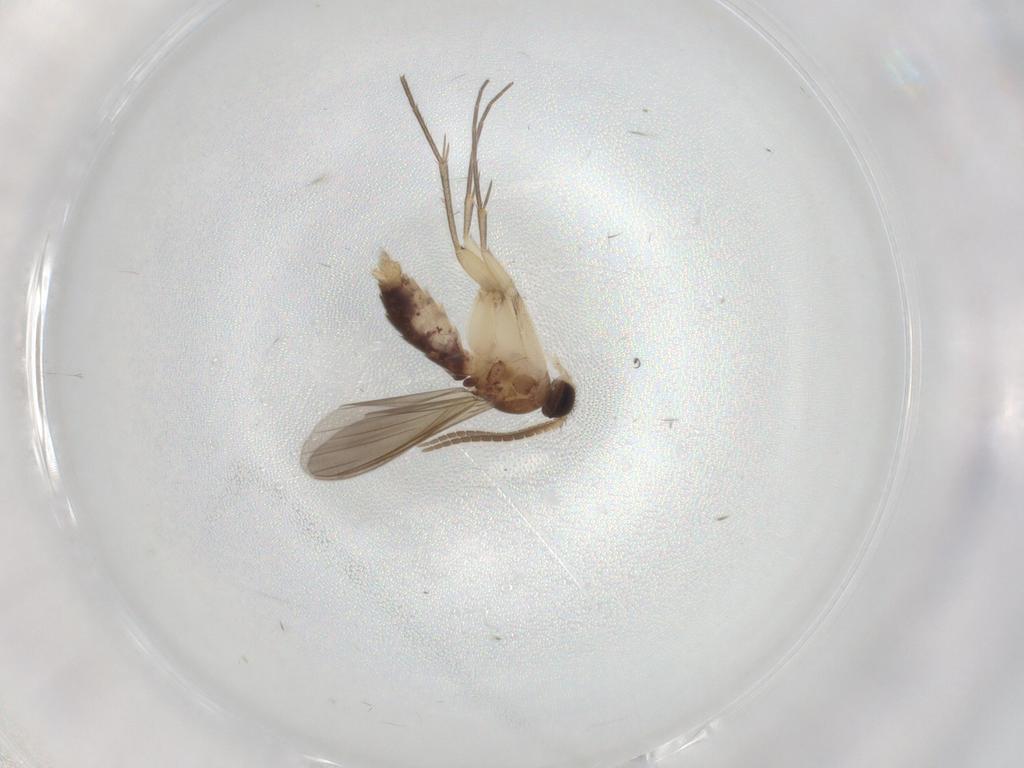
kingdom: Animalia
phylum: Arthropoda
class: Insecta
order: Diptera
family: Mycetophilidae
